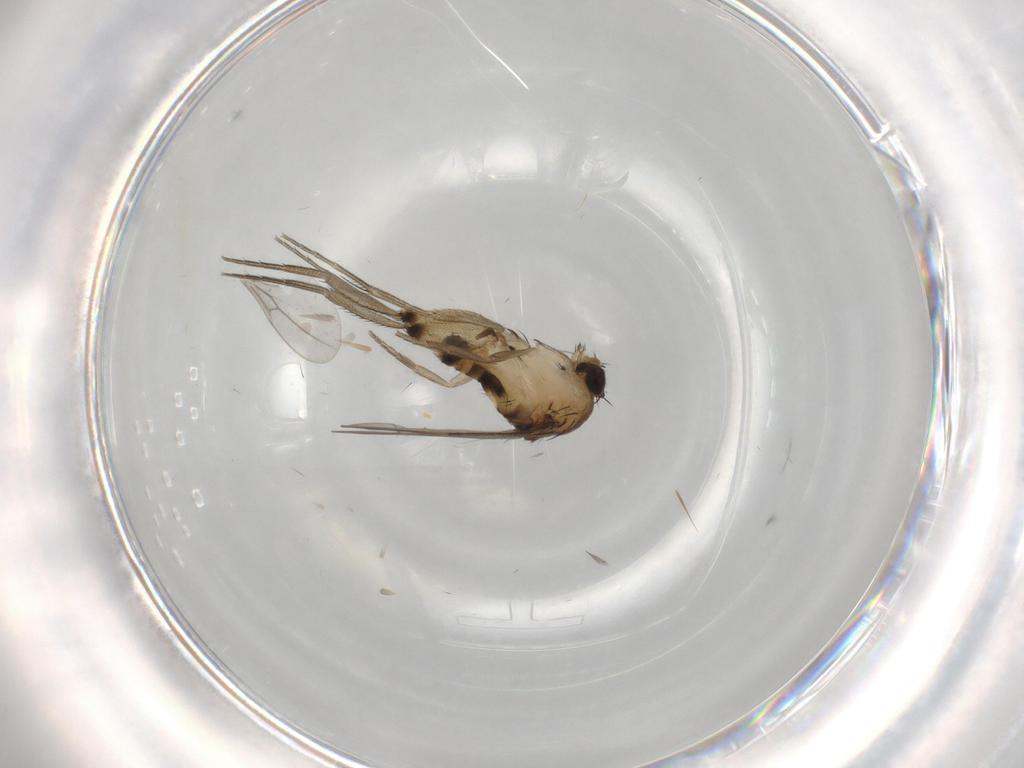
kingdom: Animalia
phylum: Arthropoda
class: Insecta
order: Diptera
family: Phoridae
